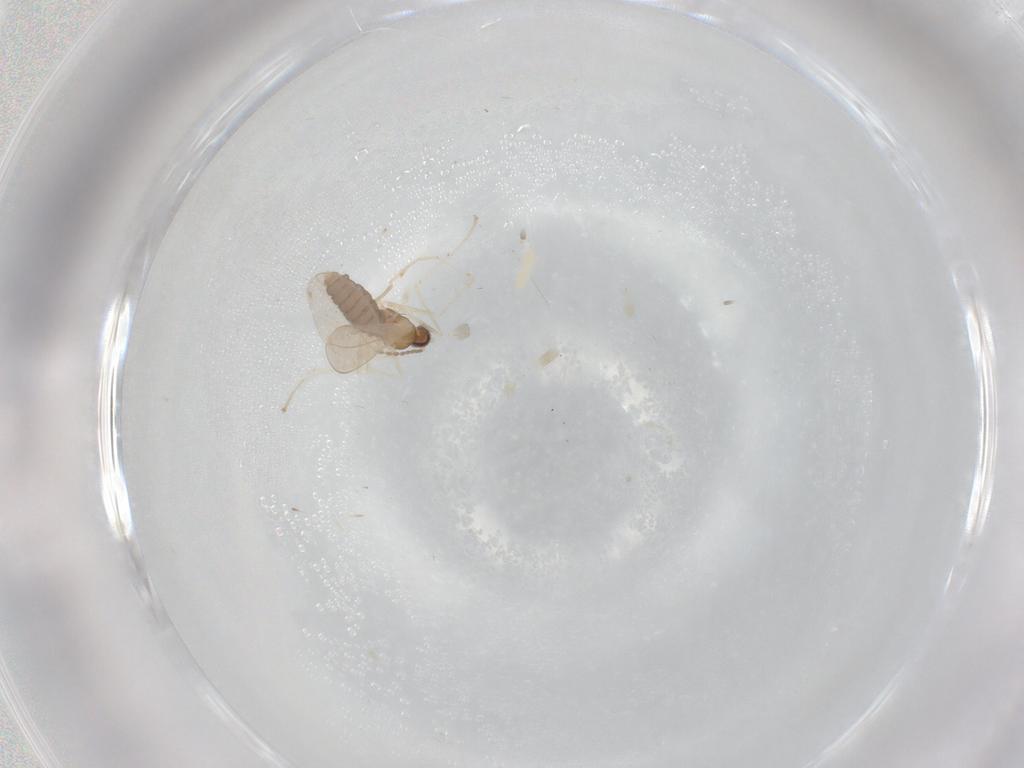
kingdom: Animalia
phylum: Arthropoda
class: Insecta
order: Diptera
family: Cecidomyiidae
